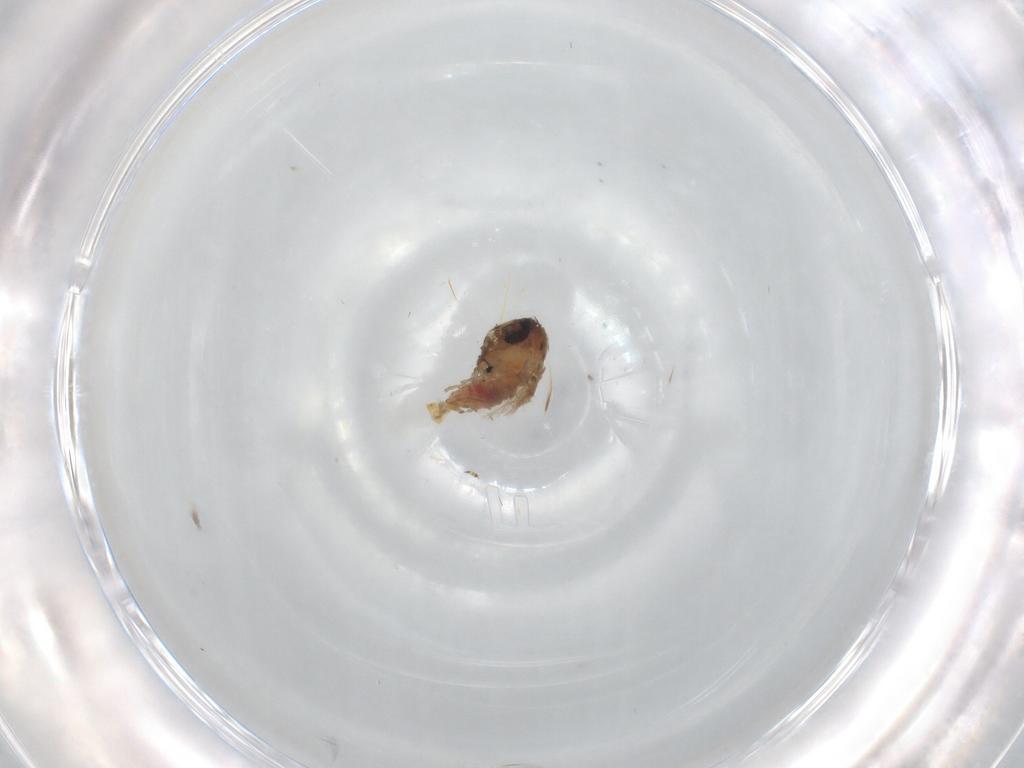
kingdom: Animalia
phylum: Arthropoda
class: Insecta
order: Diptera
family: Psychodidae
